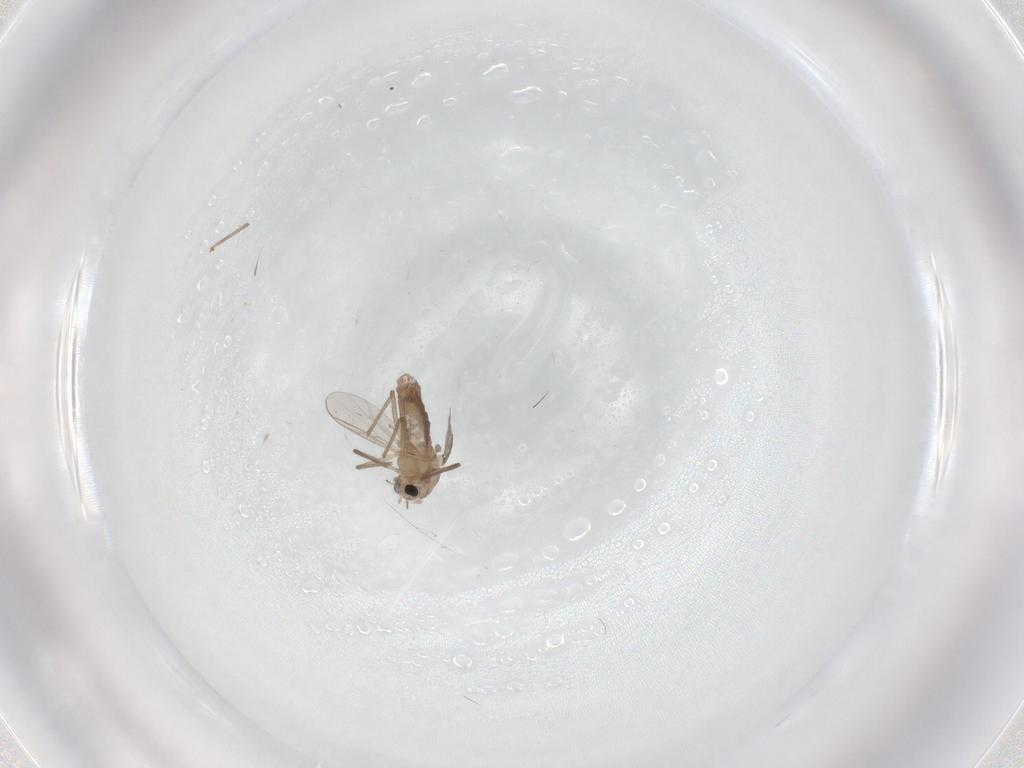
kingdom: Animalia
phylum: Arthropoda
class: Insecta
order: Diptera
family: Chironomidae
